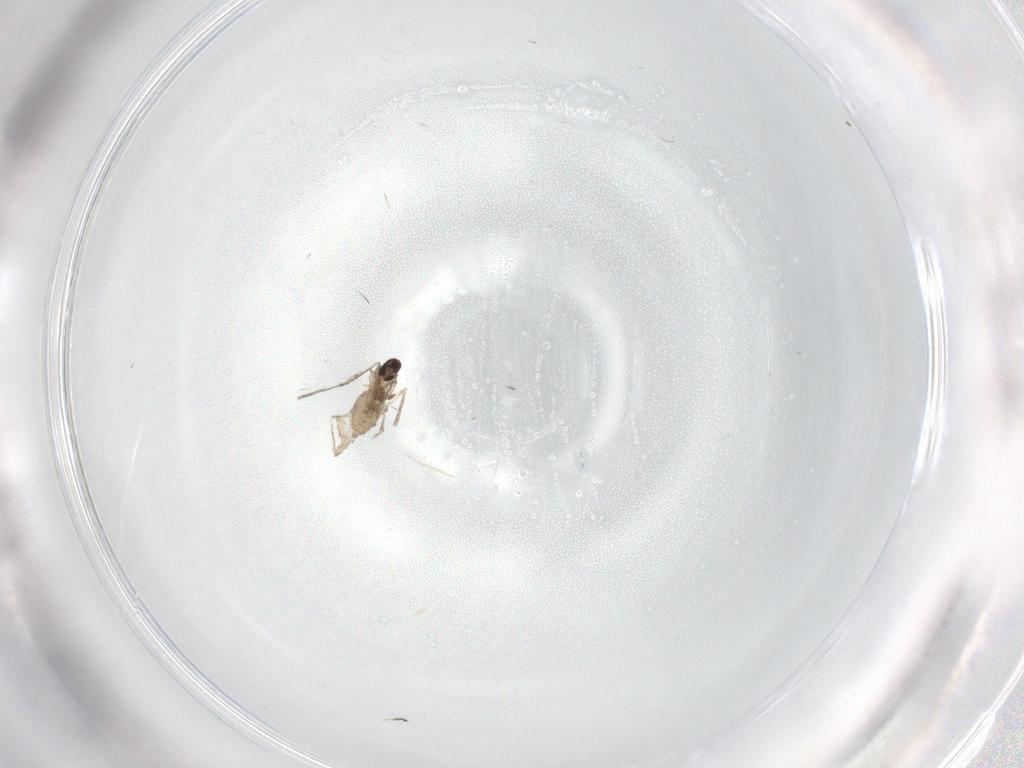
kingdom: Animalia
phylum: Arthropoda
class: Insecta
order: Diptera
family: Cecidomyiidae
